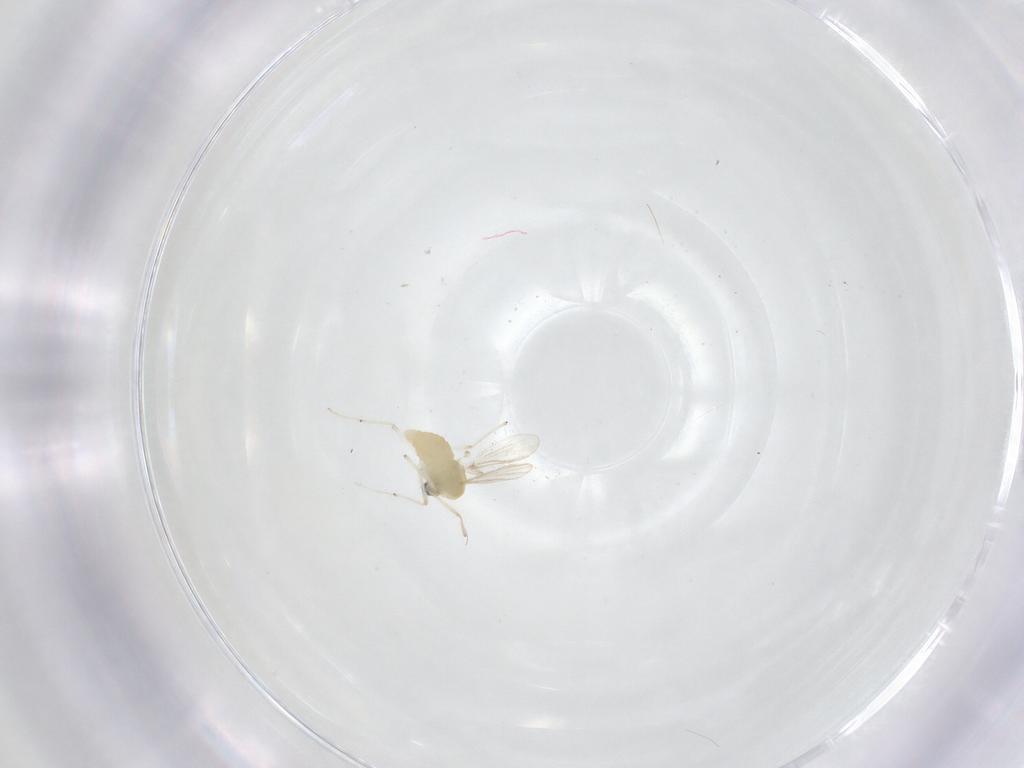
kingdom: Animalia
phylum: Arthropoda
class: Insecta
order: Diptera
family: Chironomidae
